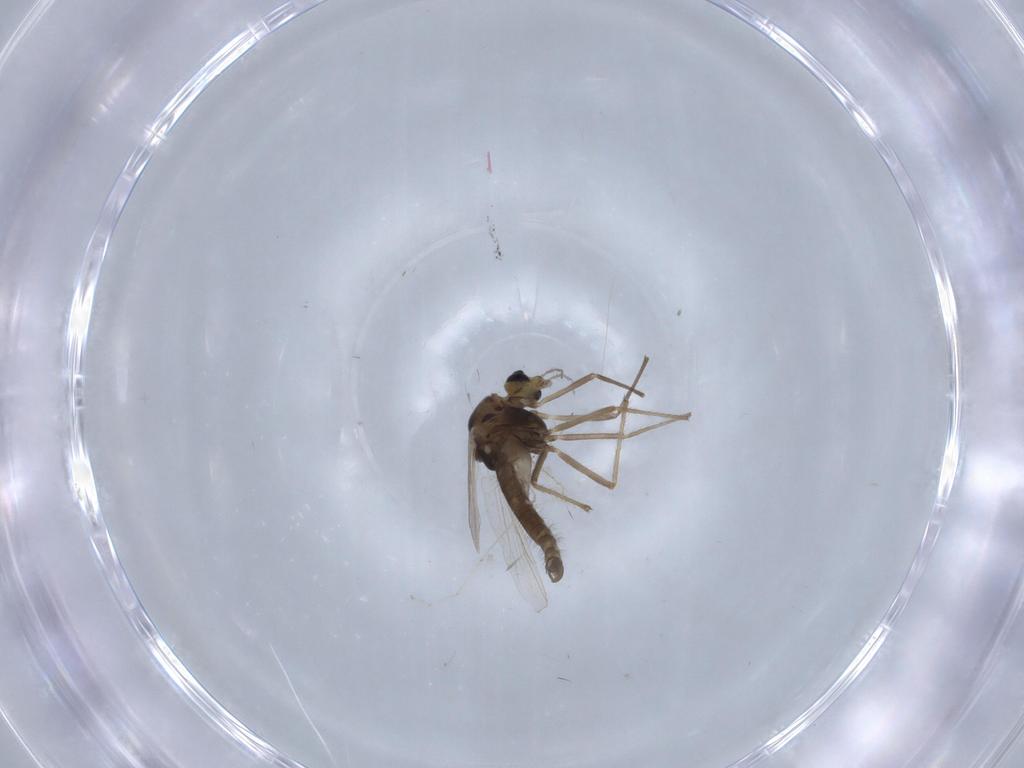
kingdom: Animalia
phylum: Arthropoda
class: Insecta
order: Diptera
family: Chironomidae
